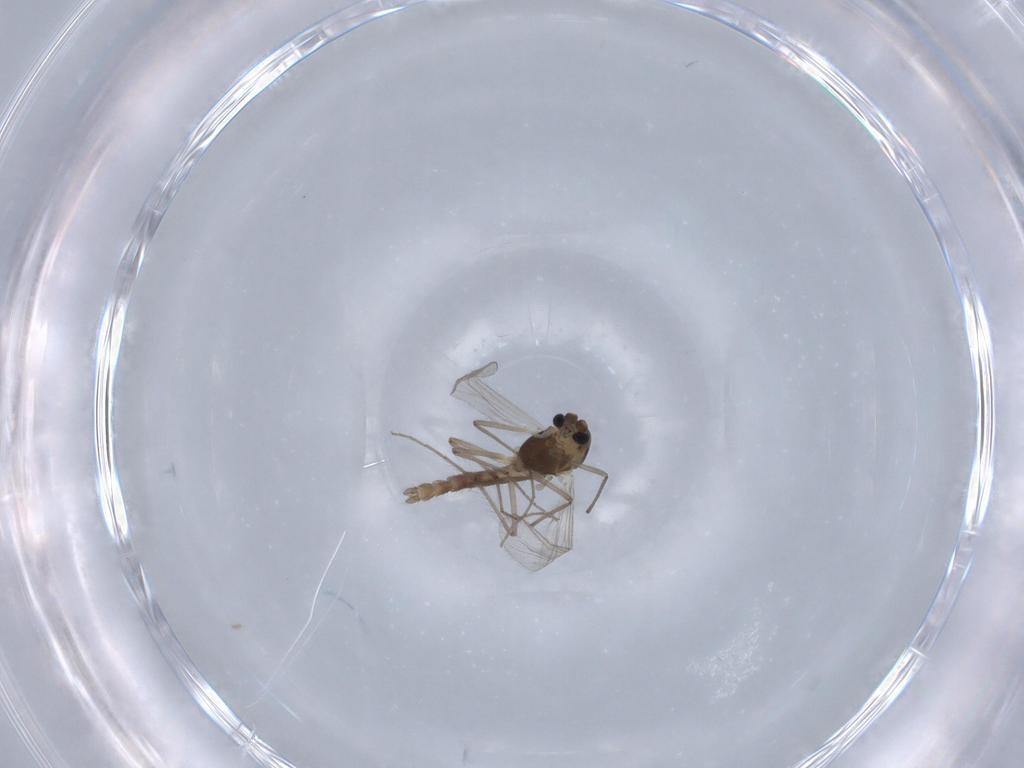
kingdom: Animalia
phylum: Arthropoda
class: Insecta
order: Diptera
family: Chironomidae
